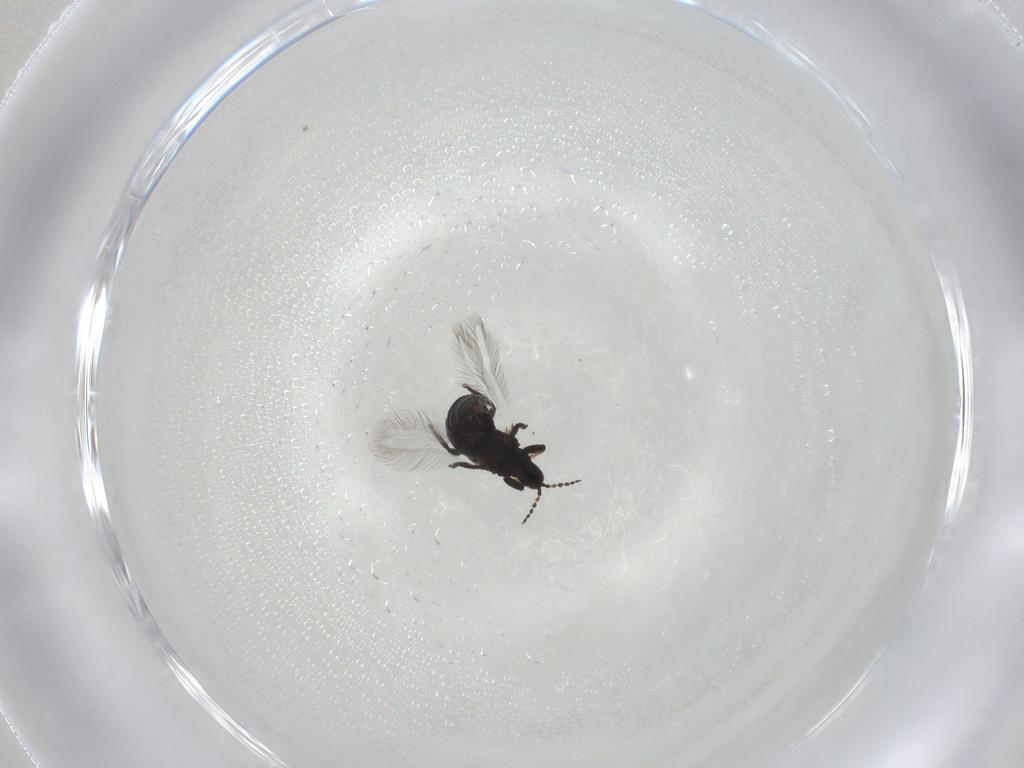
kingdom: Animalia
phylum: Arthropoda
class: Insecta
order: Thysanoptera
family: Phlaeothripidae
